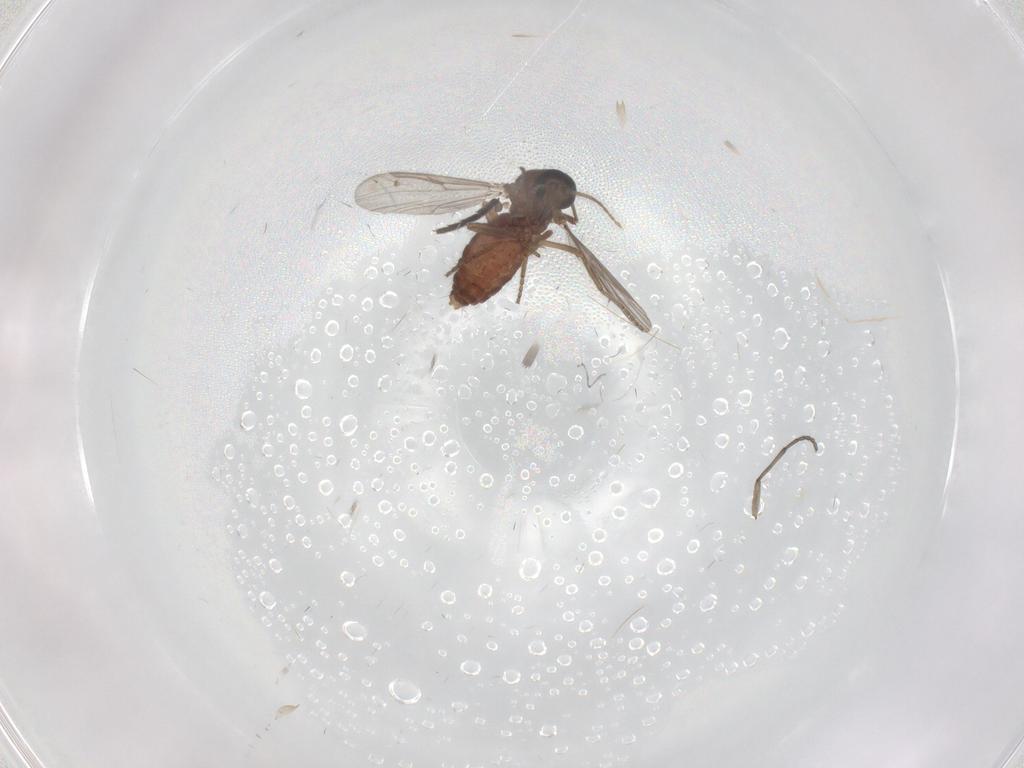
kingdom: Animalia
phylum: Arthropoda
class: Insecta
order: Diptera
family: Sciaridae
